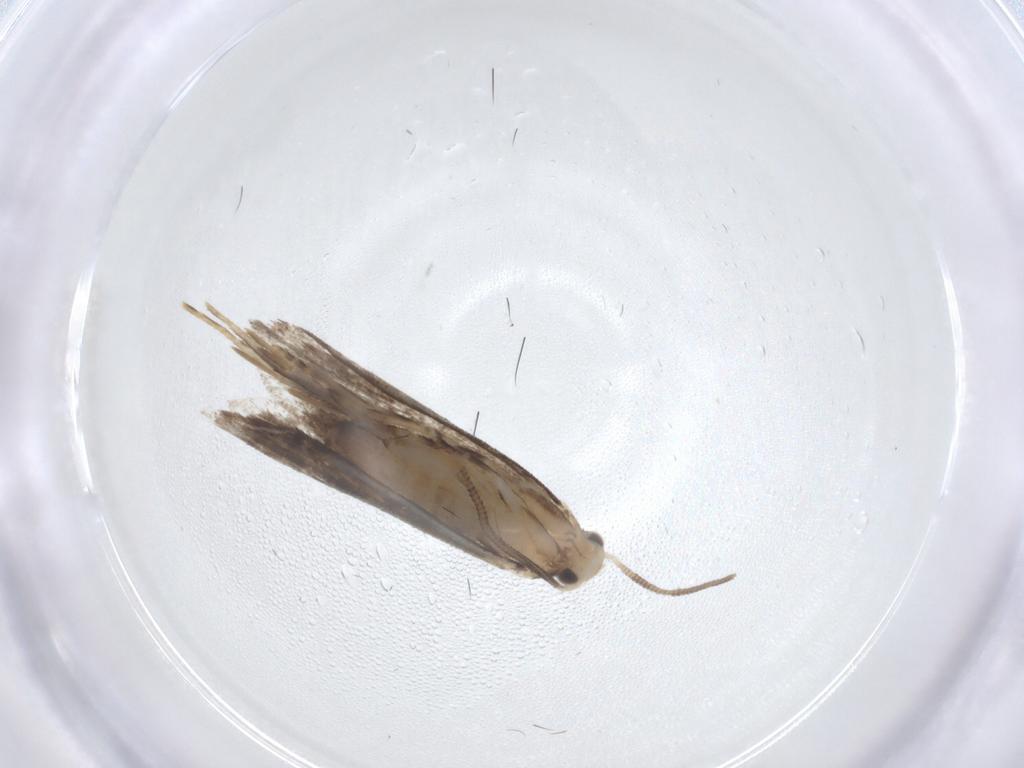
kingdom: Animalia
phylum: Arthropoda
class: Insecta
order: Lepidoptera
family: Dryadaulidae
